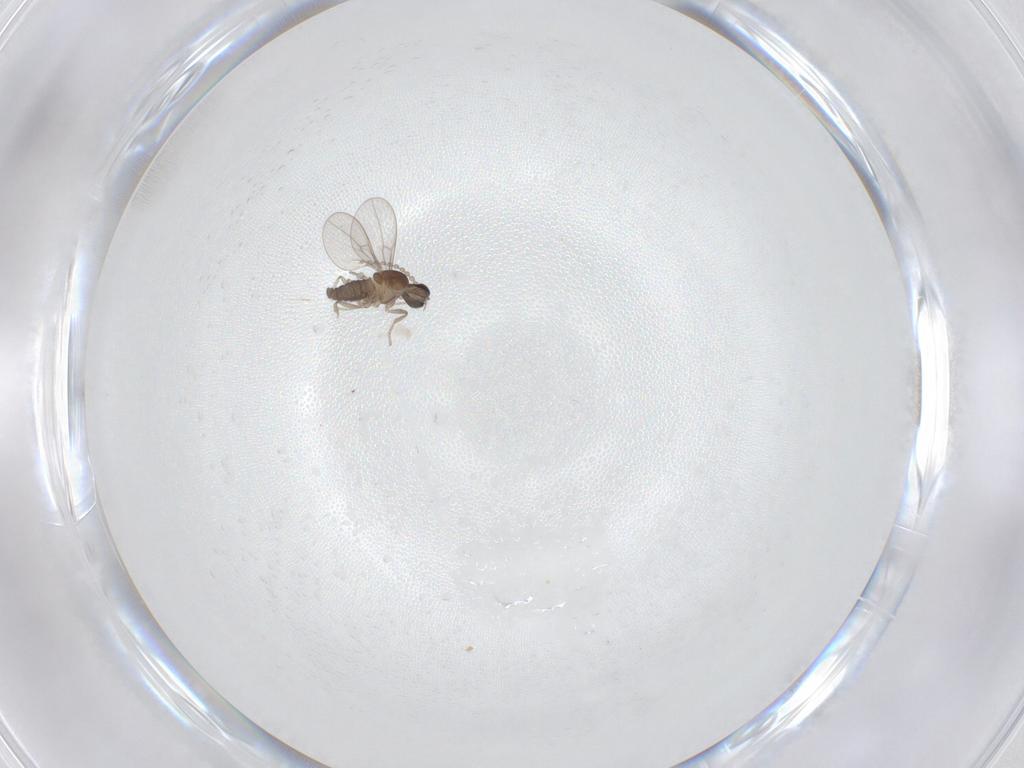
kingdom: Animalia
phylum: Arthropoda
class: Insecta
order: Diptera
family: Cecidomyiidae
